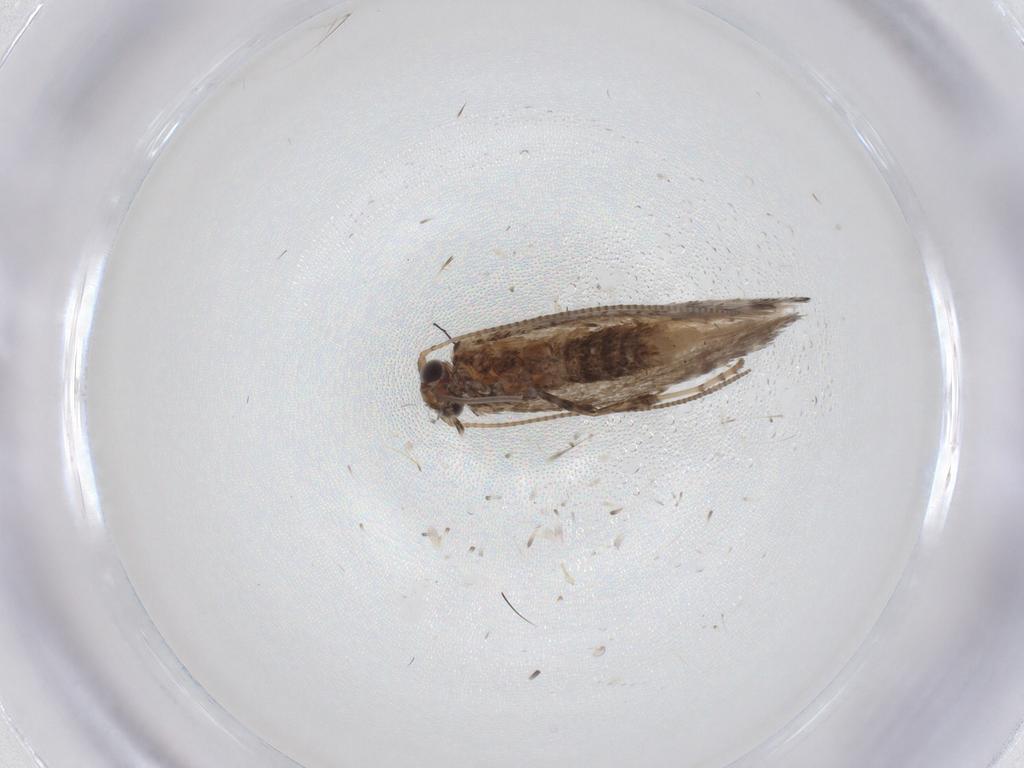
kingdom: Animalia
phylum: Arthropoda
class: Insecta
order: Lepidoptera
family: Gracillariidae
